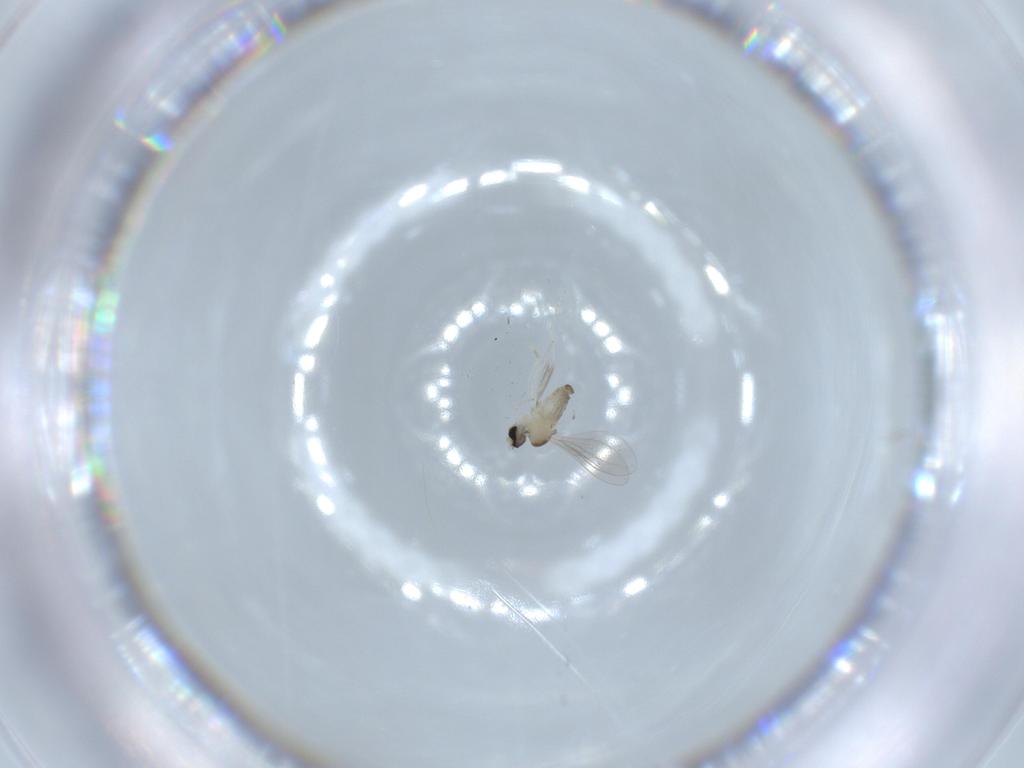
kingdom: Animalia
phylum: Arthropoda
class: Insecta
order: Diptera
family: Cecidomyiidae
